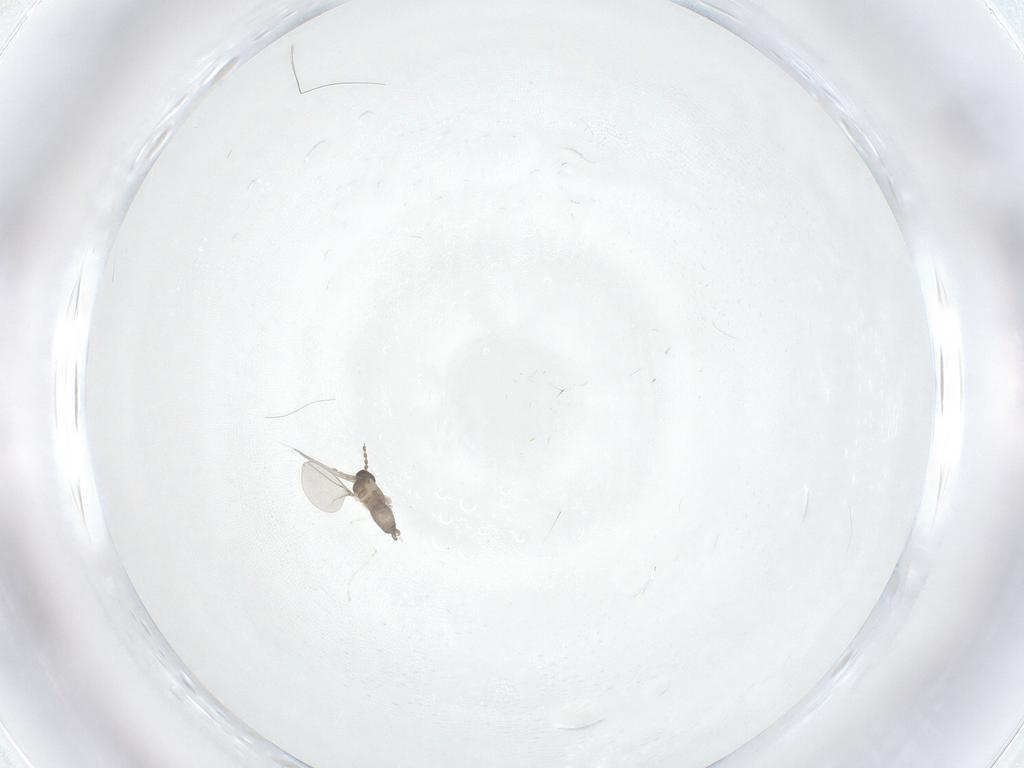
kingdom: Animalia
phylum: Arthropoda
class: Insecta
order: Diptera
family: Cecidomyiidae
